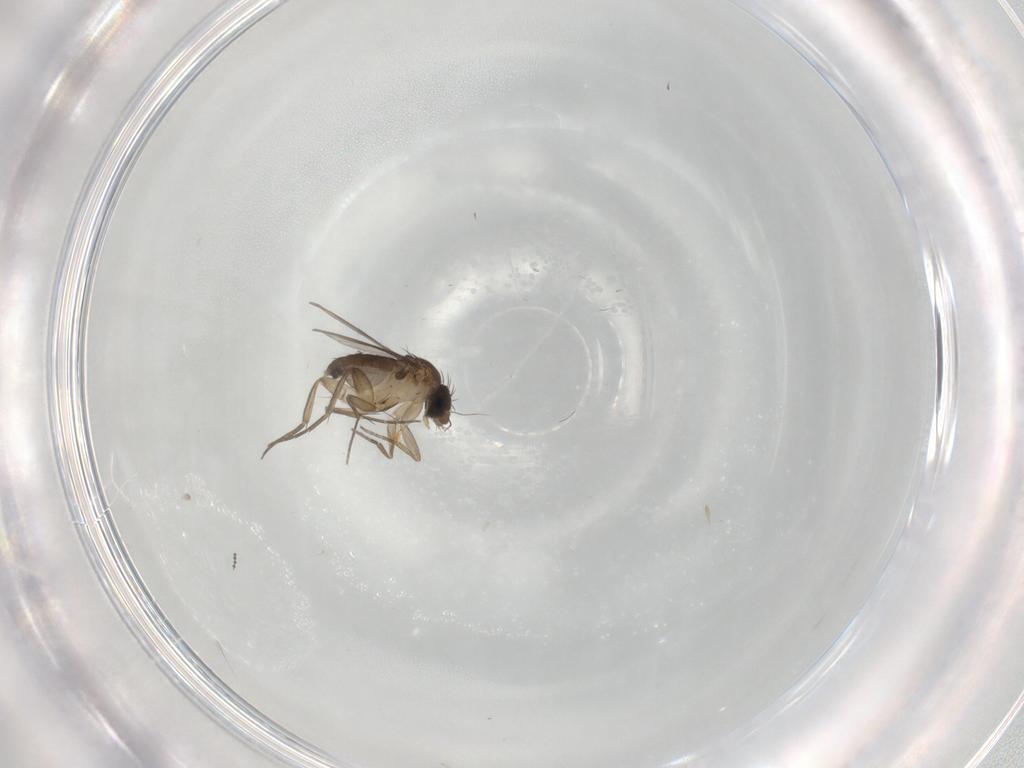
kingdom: Animalia
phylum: Arthropoda
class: Insecta
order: Diptera
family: Phoridae
